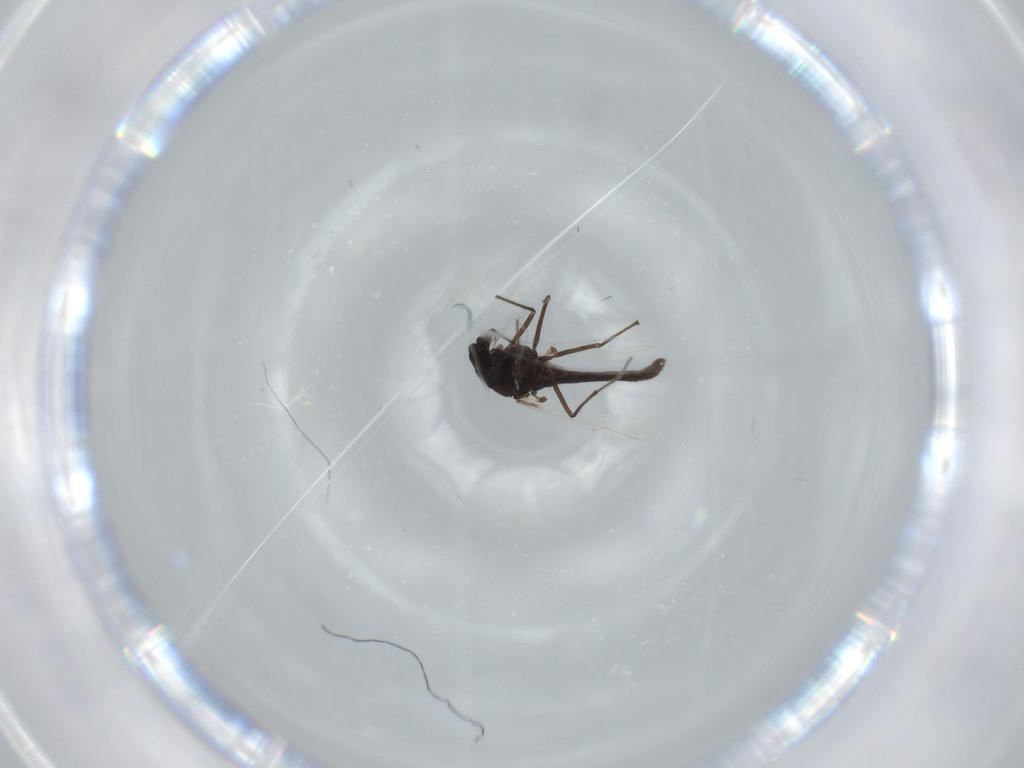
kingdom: Animalia
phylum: Arthropoda
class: Insecta
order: Diptera
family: Chironomidae
